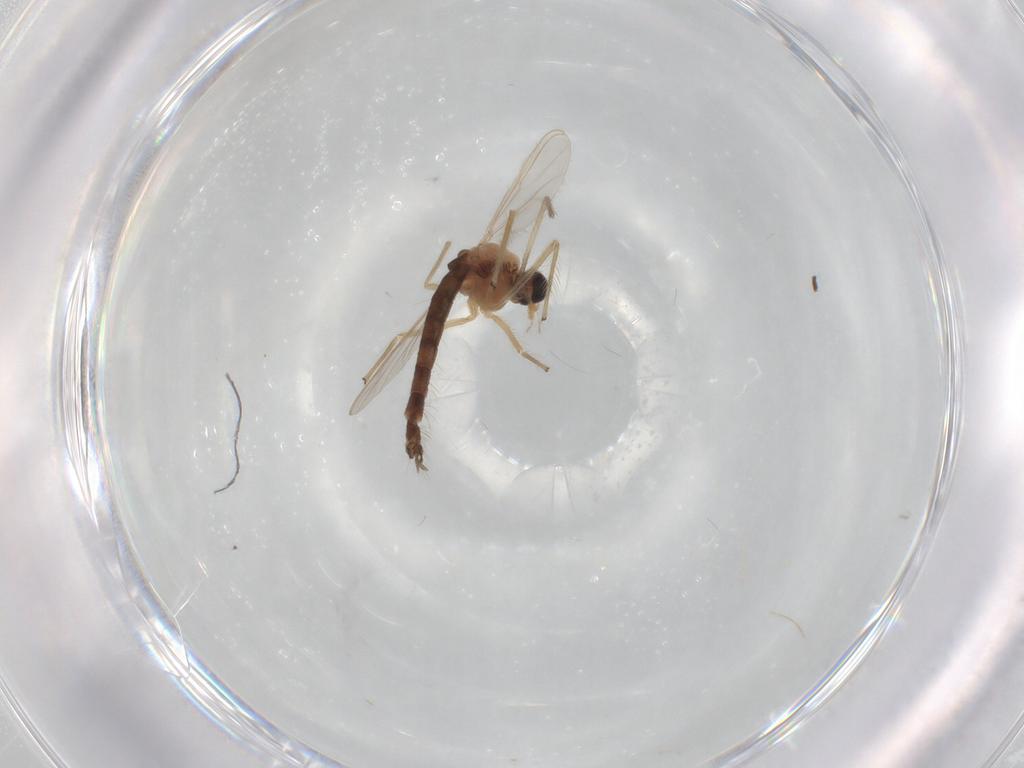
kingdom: Animalia
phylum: Arthropoda
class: Insecta
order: Diptera
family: Chironomidae
